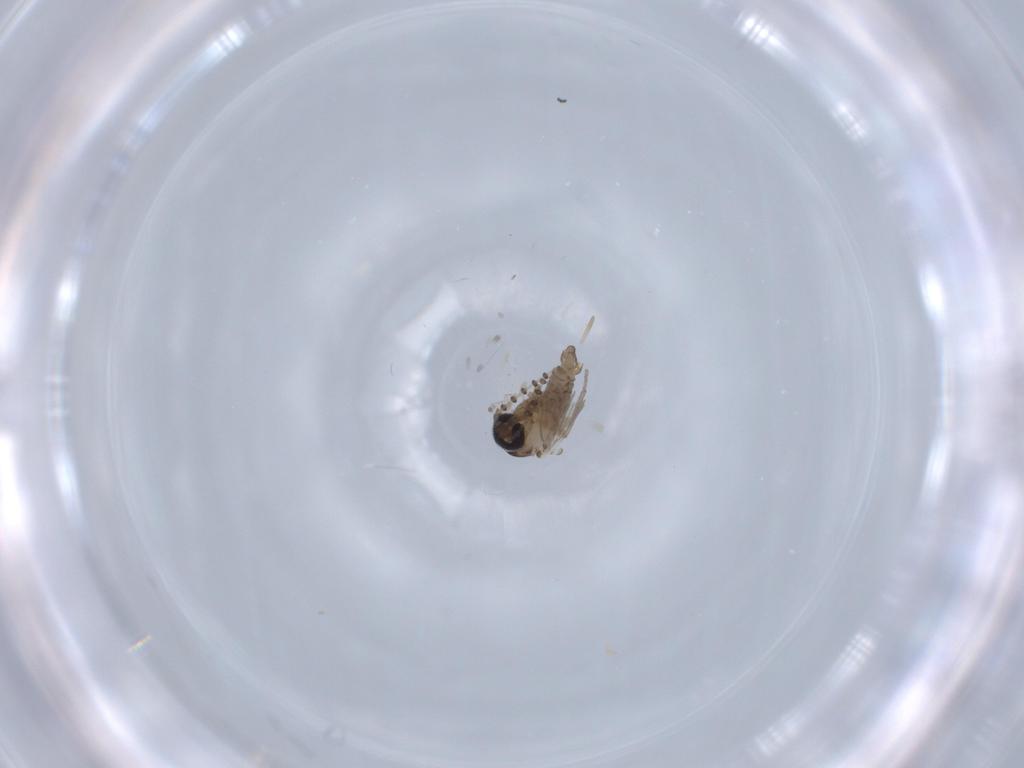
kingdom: Animalia
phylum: Arthropoda
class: Insecta
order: Diptera
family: Psychodidae
